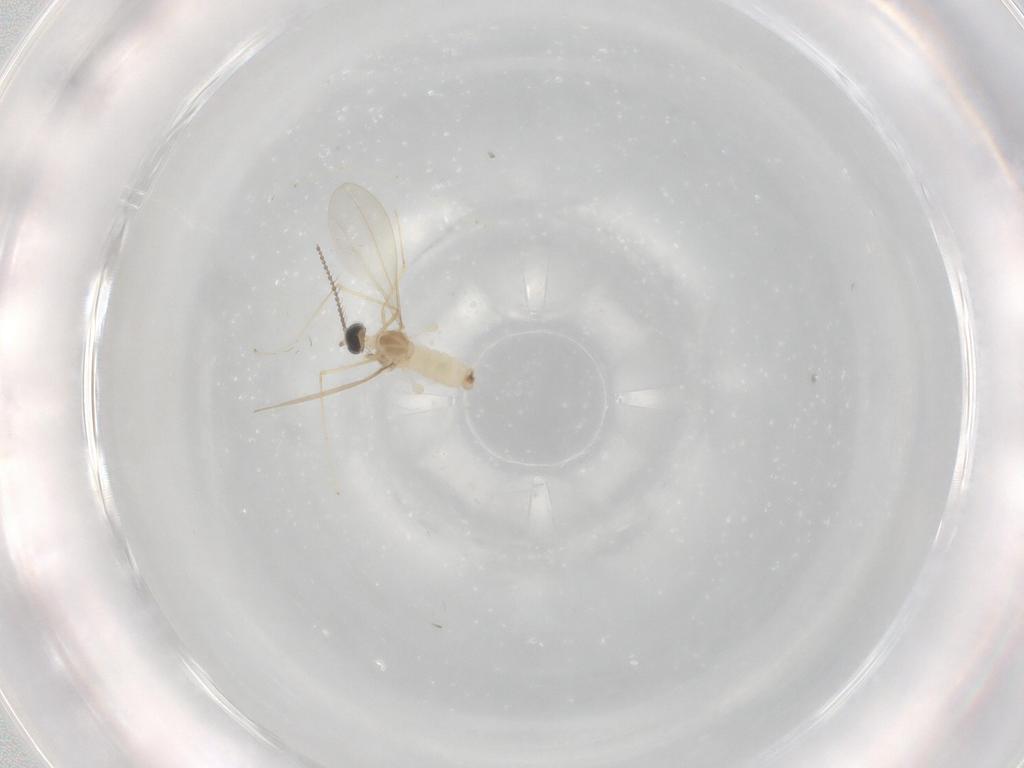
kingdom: Animalia
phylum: Arthropoda
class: Insecta
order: Diptera
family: Cecidomyiidae
